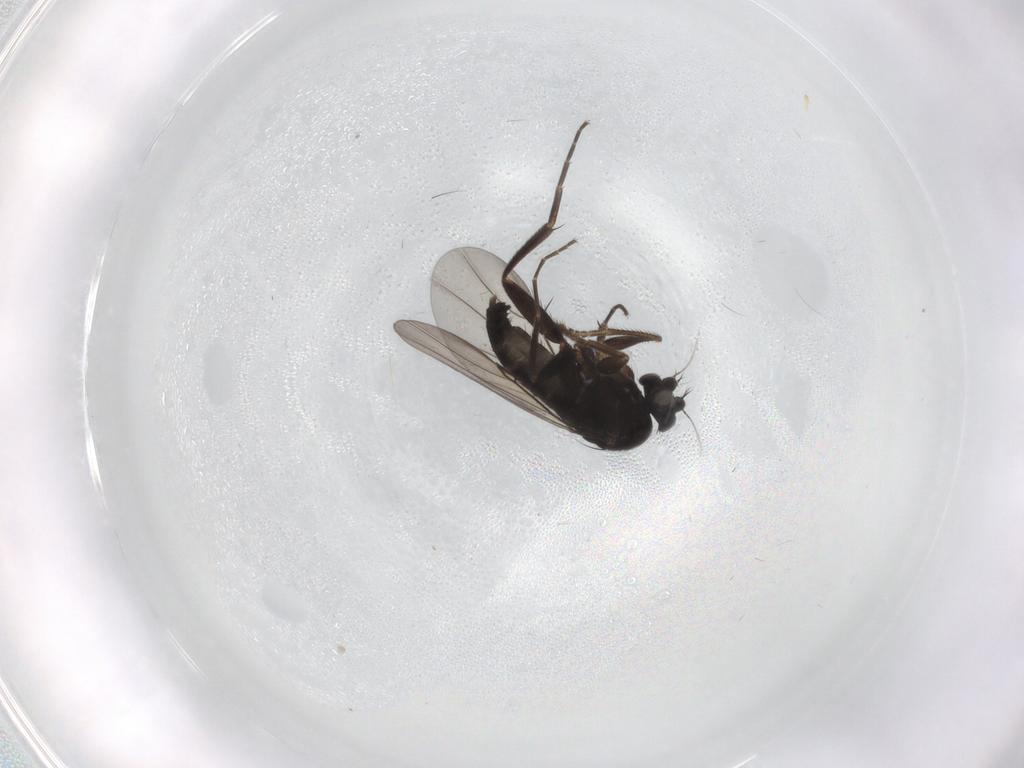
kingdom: Animalia
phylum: Arthropoda
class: Insecta
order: Diptera
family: Phoridae
